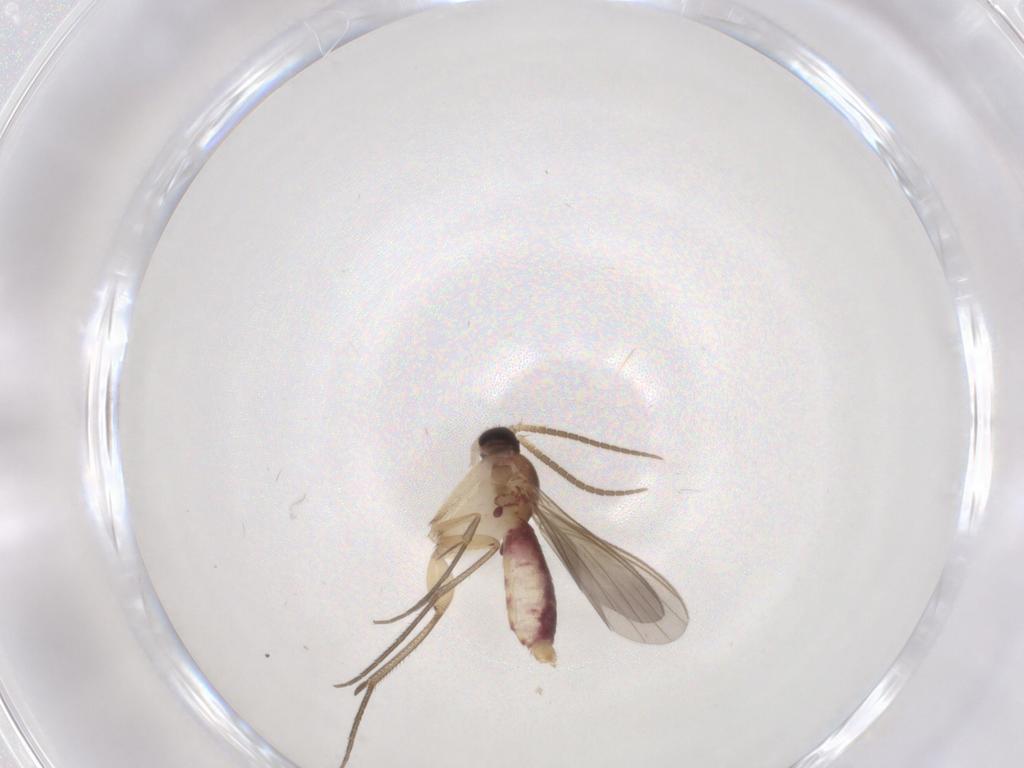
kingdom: Animalia
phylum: Arthropoda
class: Insecta
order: Diptera
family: Mycetophilidae
